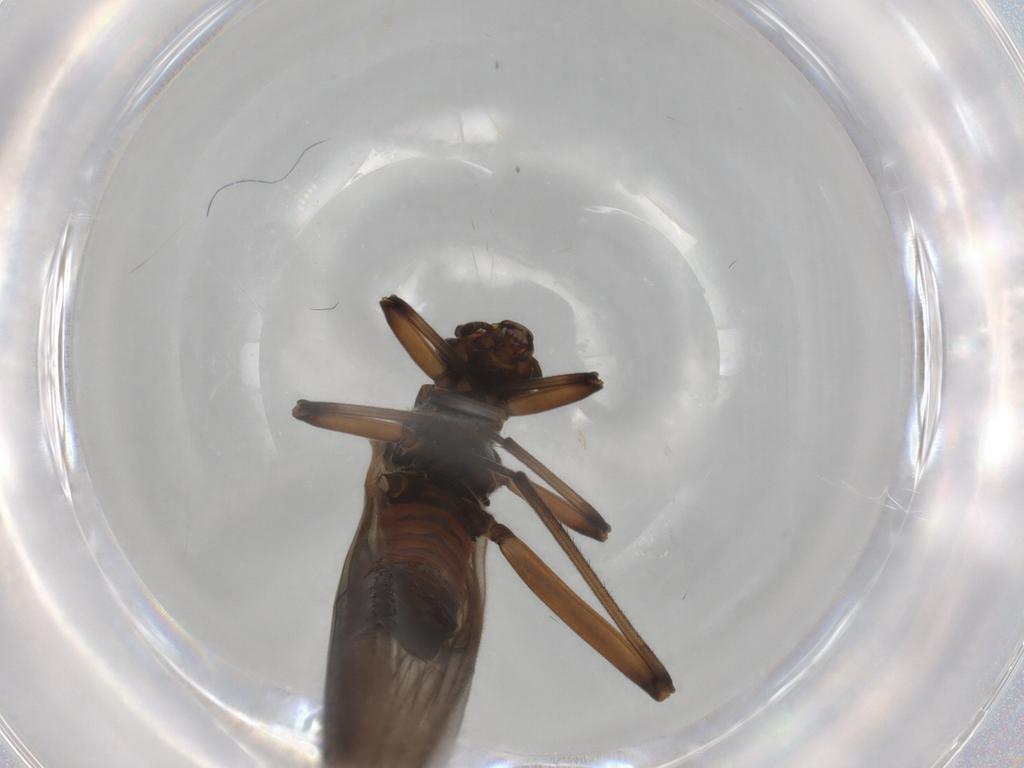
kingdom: Animalia
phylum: Arthropoda
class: Insecta
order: Plecoptera
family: Notonemouridae
